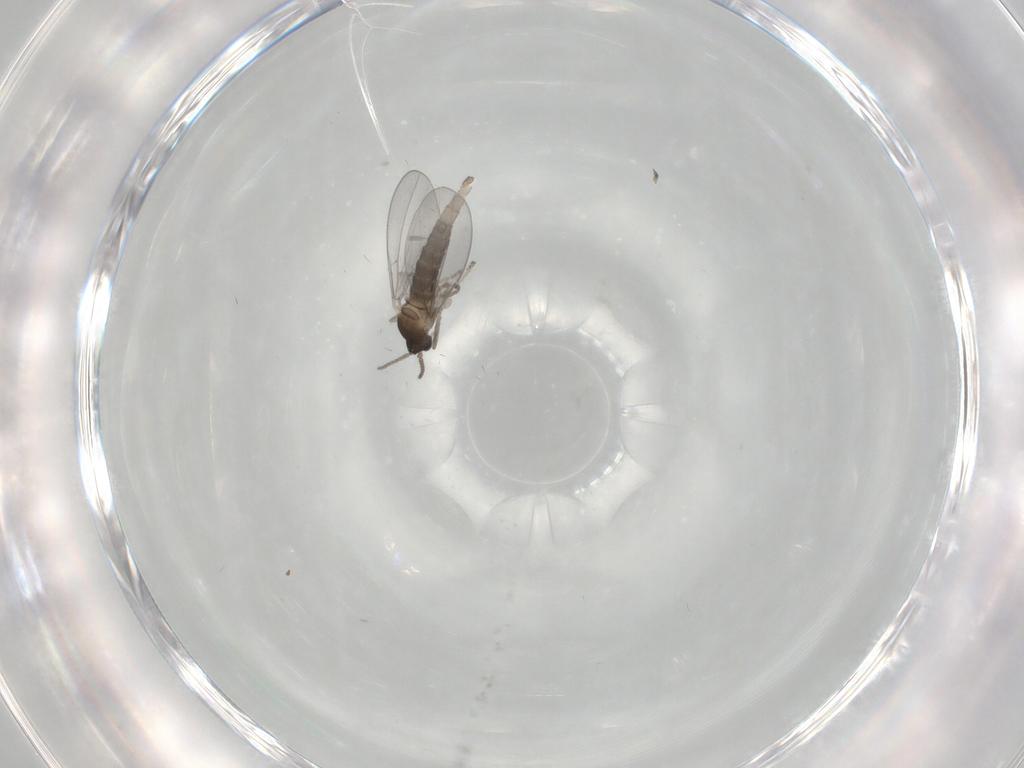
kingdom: Animalia
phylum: Arthropoda
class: Insecta
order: Diptera
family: Cecidomyiidae
